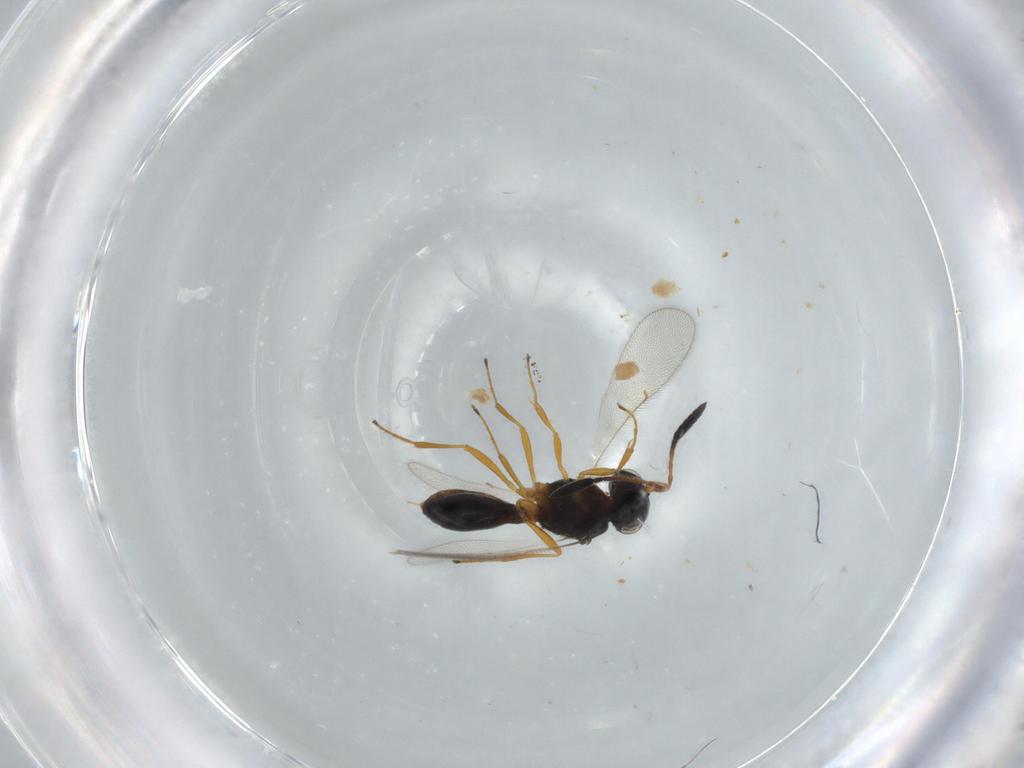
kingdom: Animalia
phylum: Arthropoda
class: Insecta
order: Hymenoptera
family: Scelionidae
